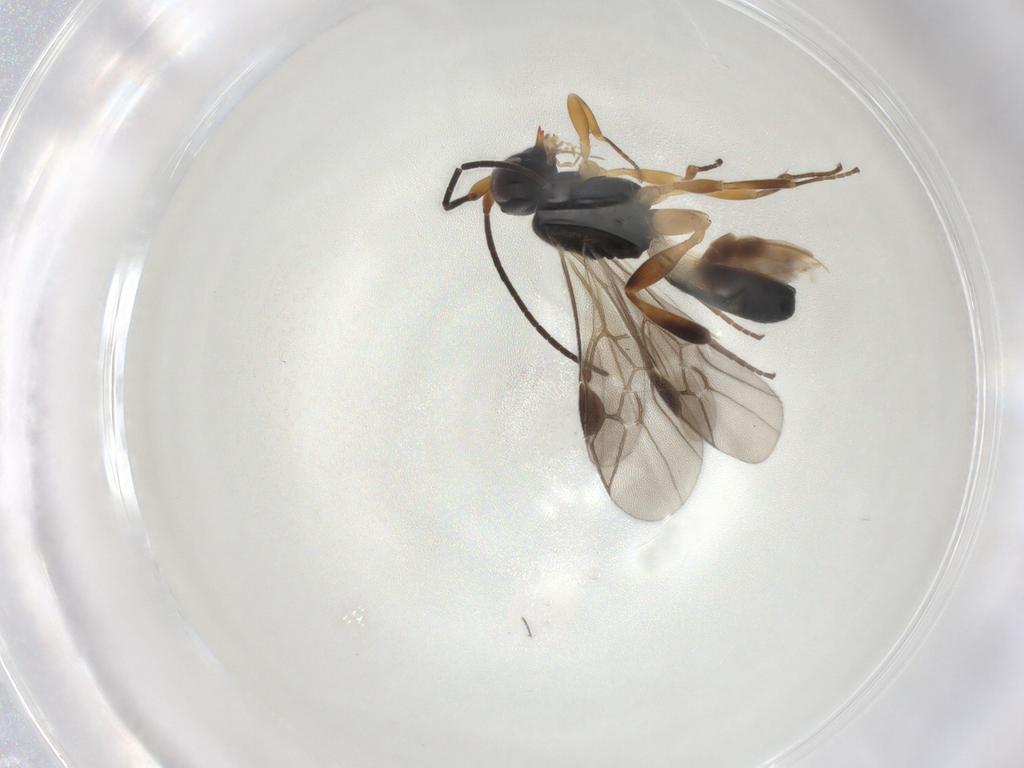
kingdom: Animalia
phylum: Arthropoda
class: Insecta
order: Hymenoptera
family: Braconidae
